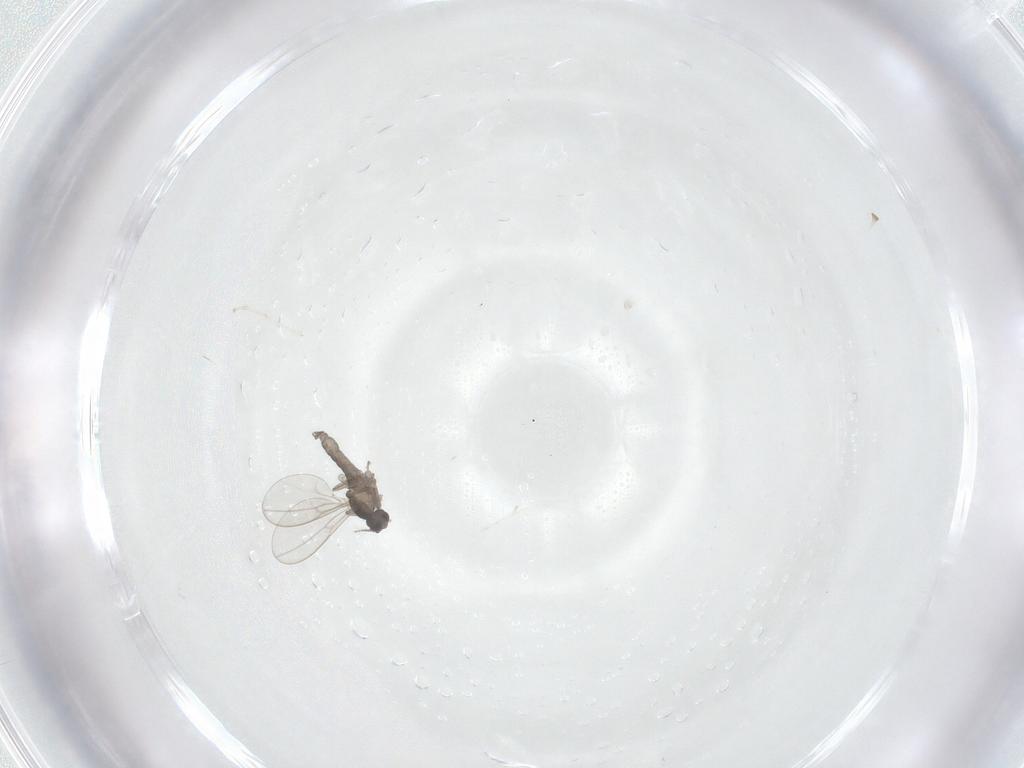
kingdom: Animalia
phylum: Arthropoda
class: Insecta
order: Diptera
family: Cecidomyiidae
